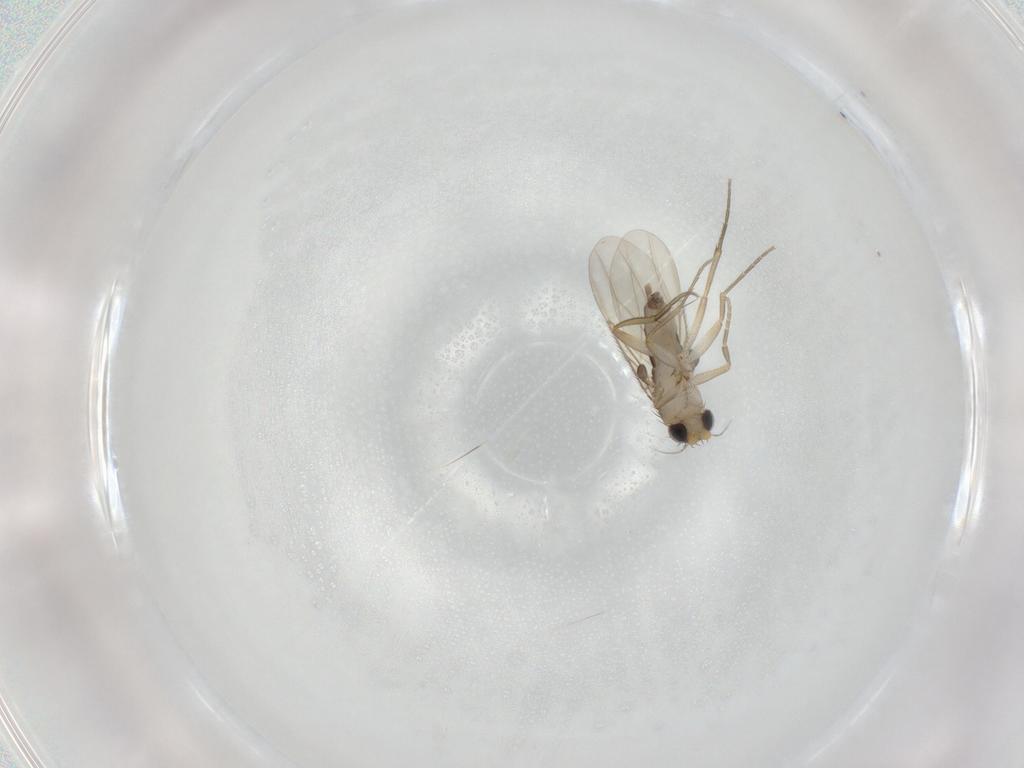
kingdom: Animalia
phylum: Arthropoda
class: Insecta
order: Diptera
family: Phoridae
